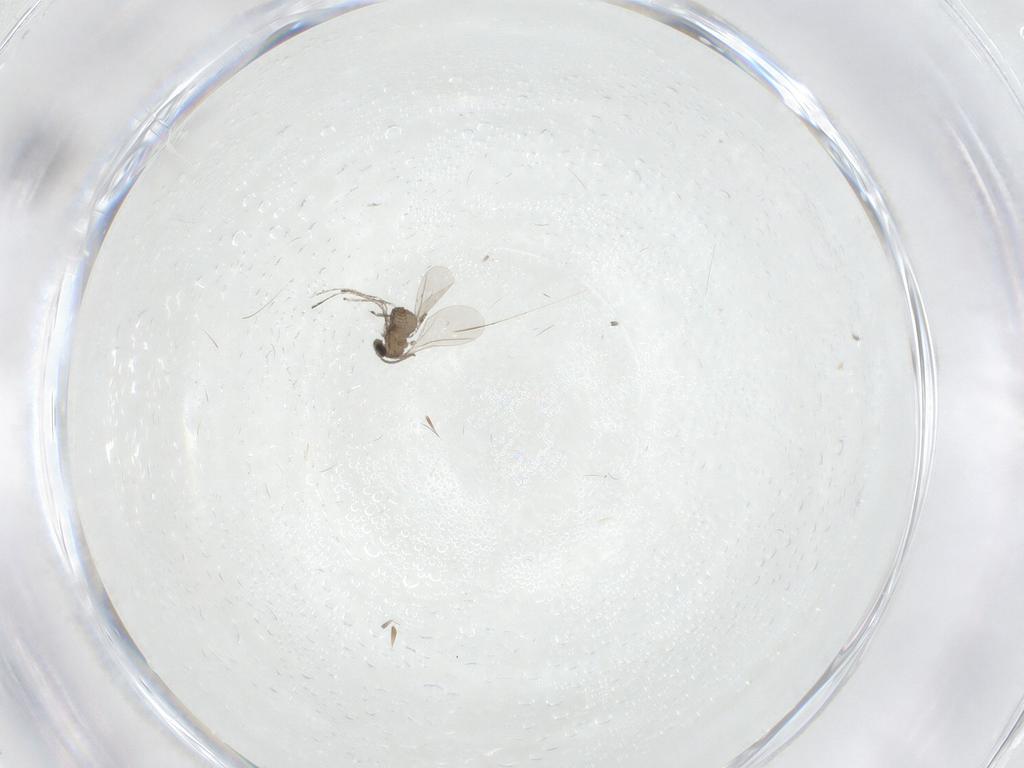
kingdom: Animalia
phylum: Arthropoda
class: Insecta
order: Diptera
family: Cecidomyiidae
